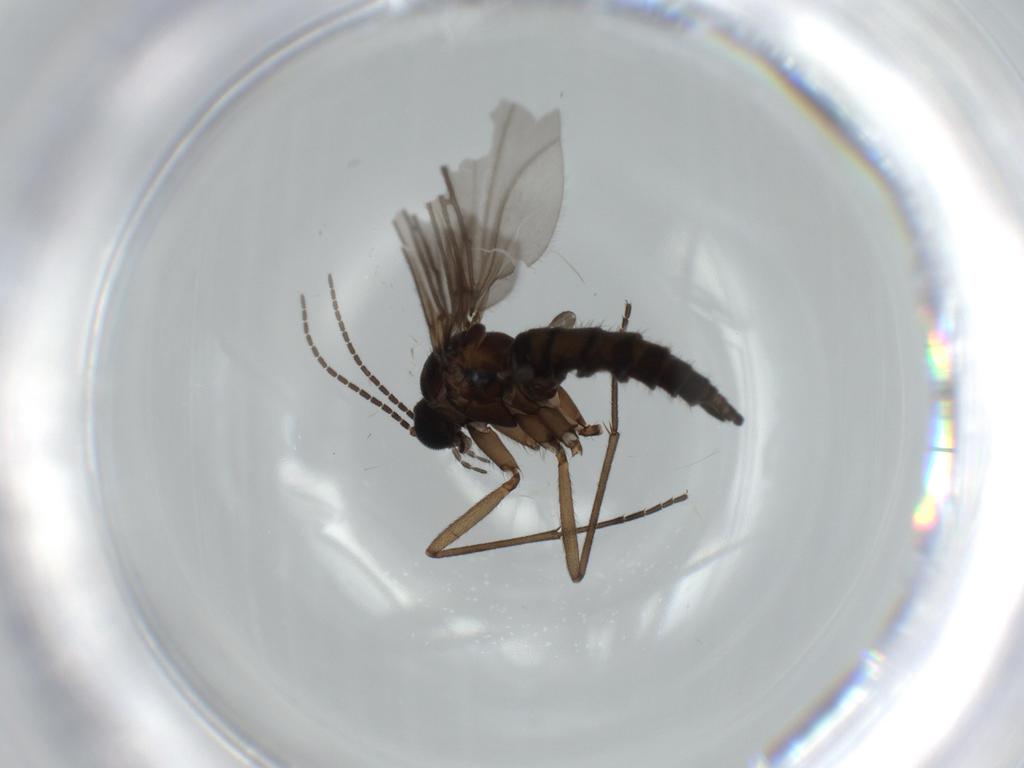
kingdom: Animalia
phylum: Arthropoda
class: Insecta
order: Diptera
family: Sciaridae
